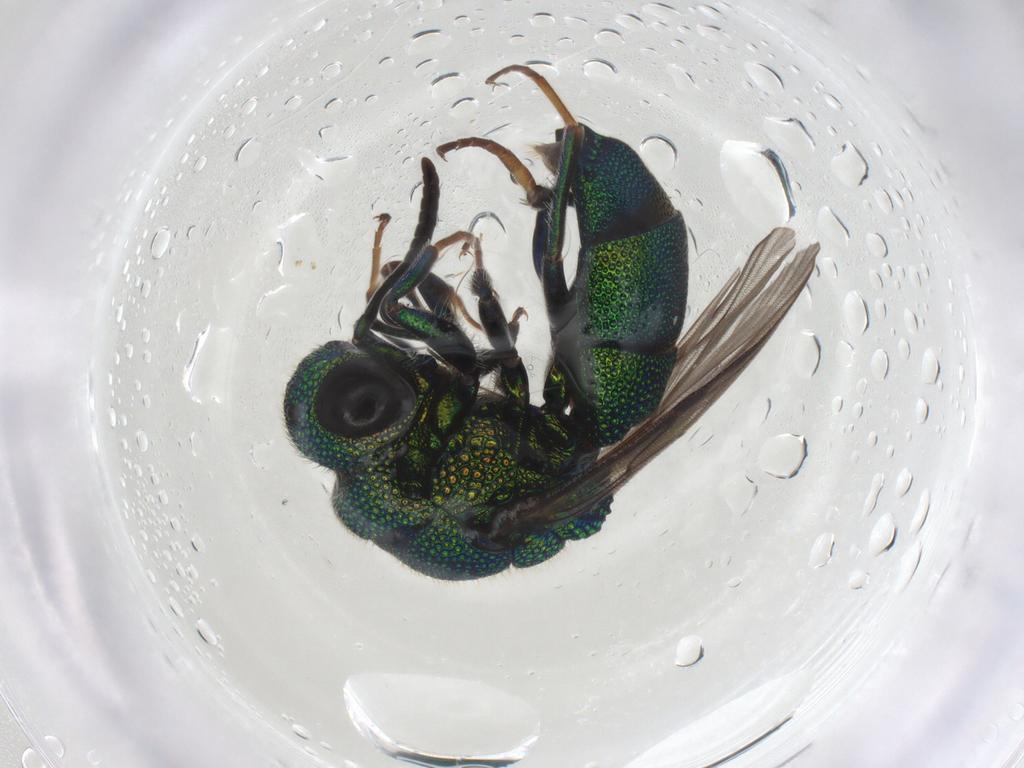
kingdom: Animalia
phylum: Arthropoda
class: Insecta
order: Hymenoptera
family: Chrysididae
